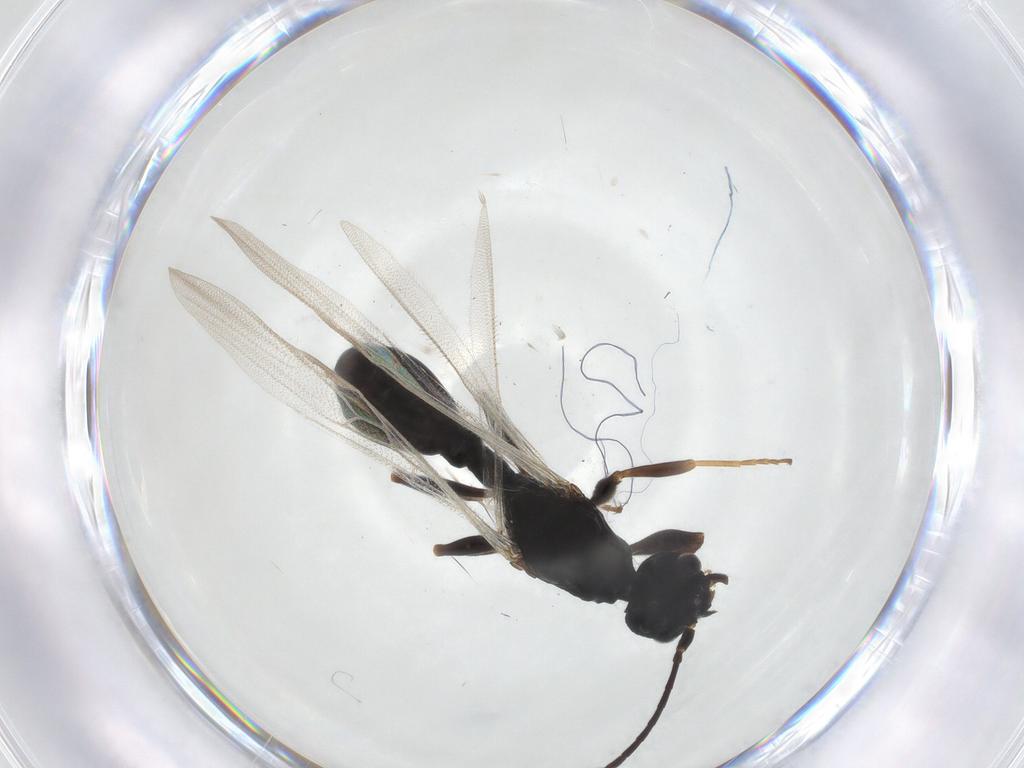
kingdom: Animalia
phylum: Arthropoda
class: Insecta
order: Hymenoptera
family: Formicidae
